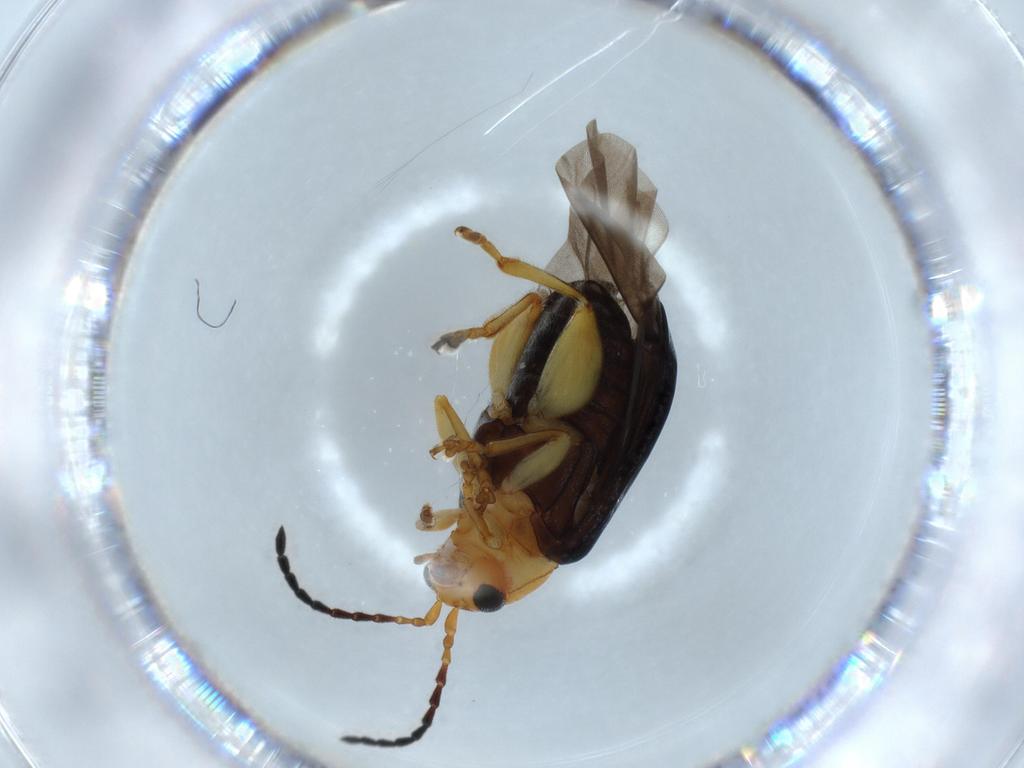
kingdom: Animalia
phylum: Arthropoda
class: Insecta
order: Coleoptera
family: Chrysomelidae
